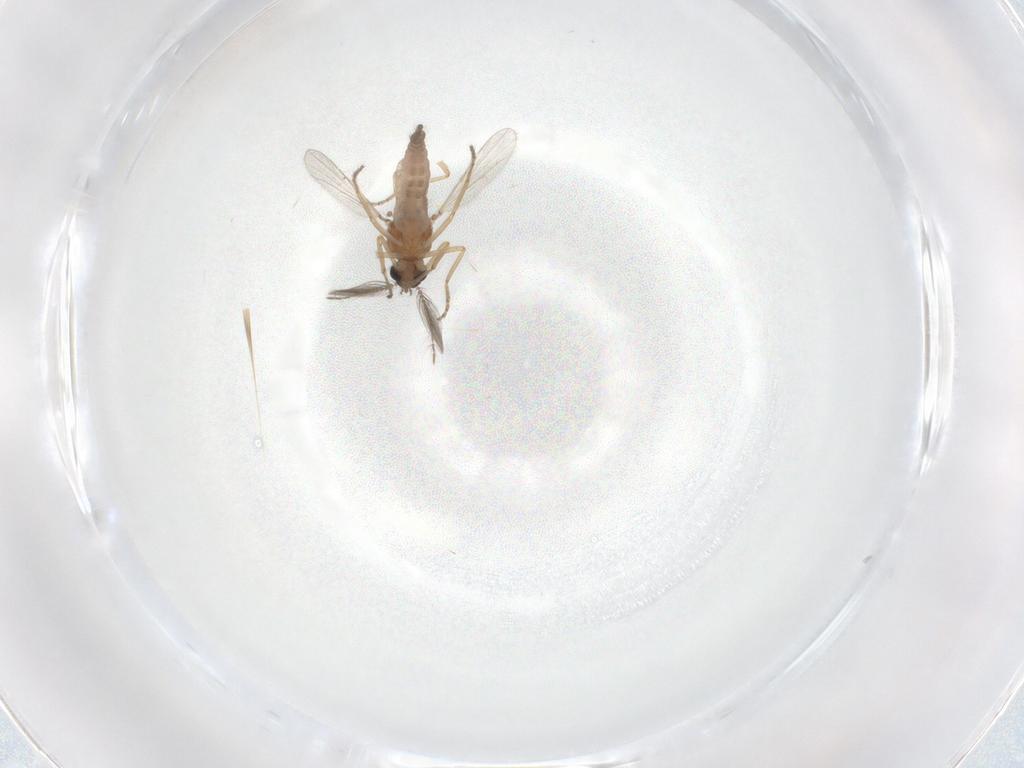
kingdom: Animalia
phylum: Arthropoda
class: Insecta
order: Diptera
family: Ceratopogonidae
